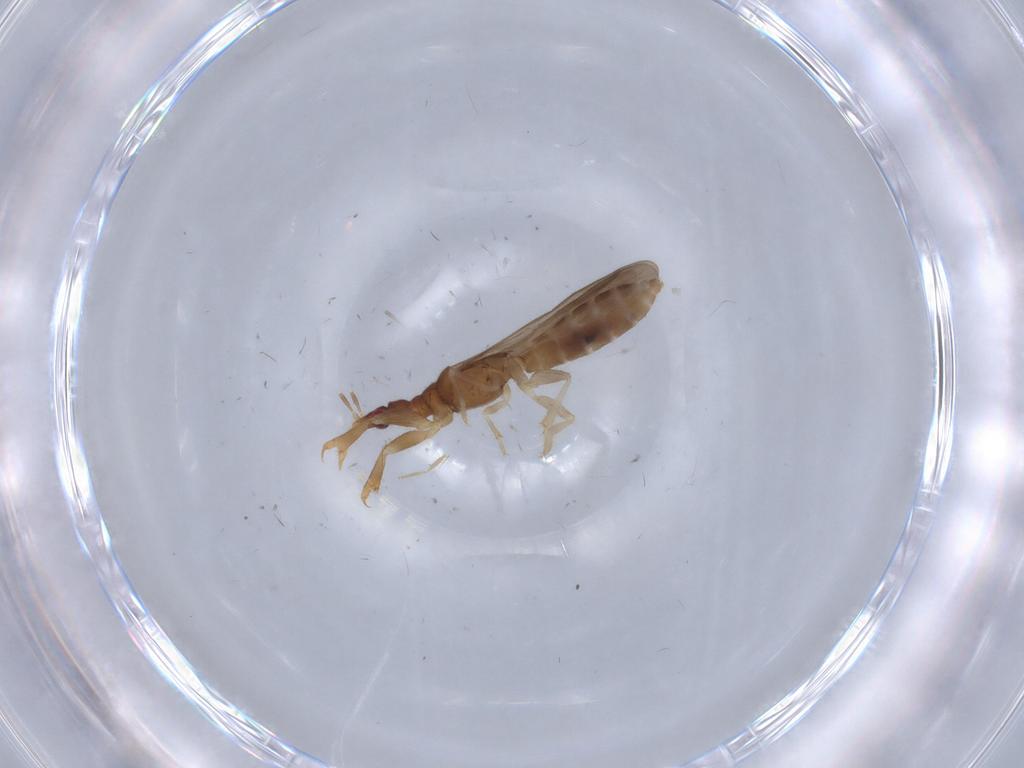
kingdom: Animalia
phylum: Arthropoda
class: Insecta
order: Hemiptera
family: Enicocephalidae
